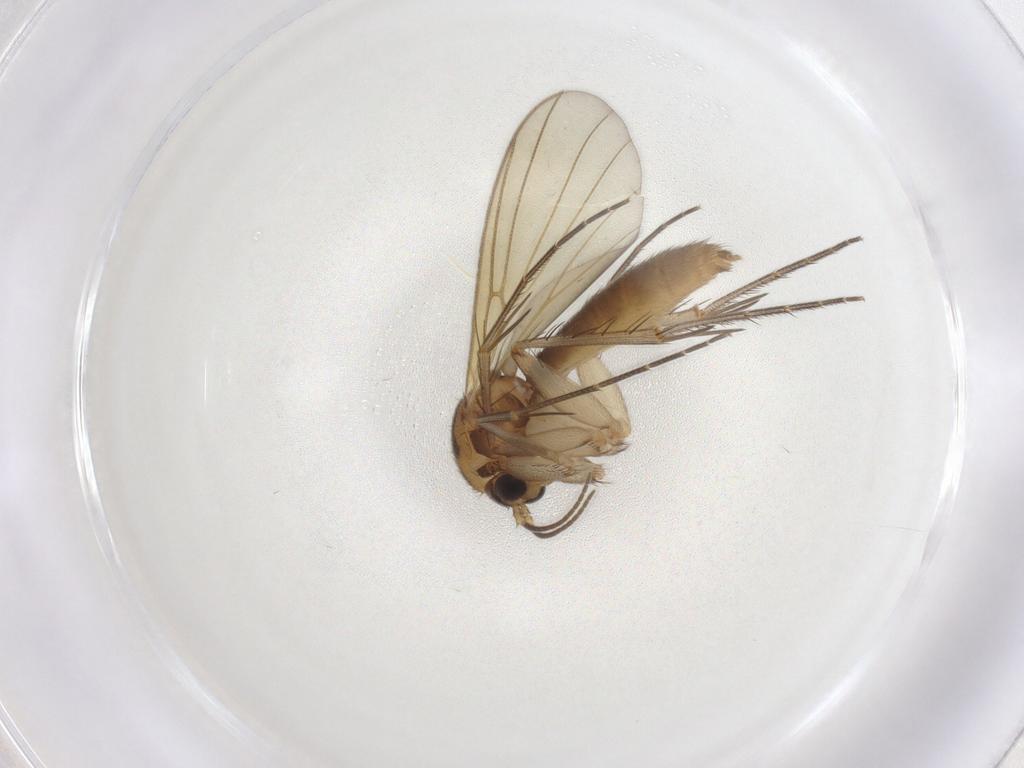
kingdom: Animalia
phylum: Arthropoda
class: Insecta
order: Diptera
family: Mycetophilidae
